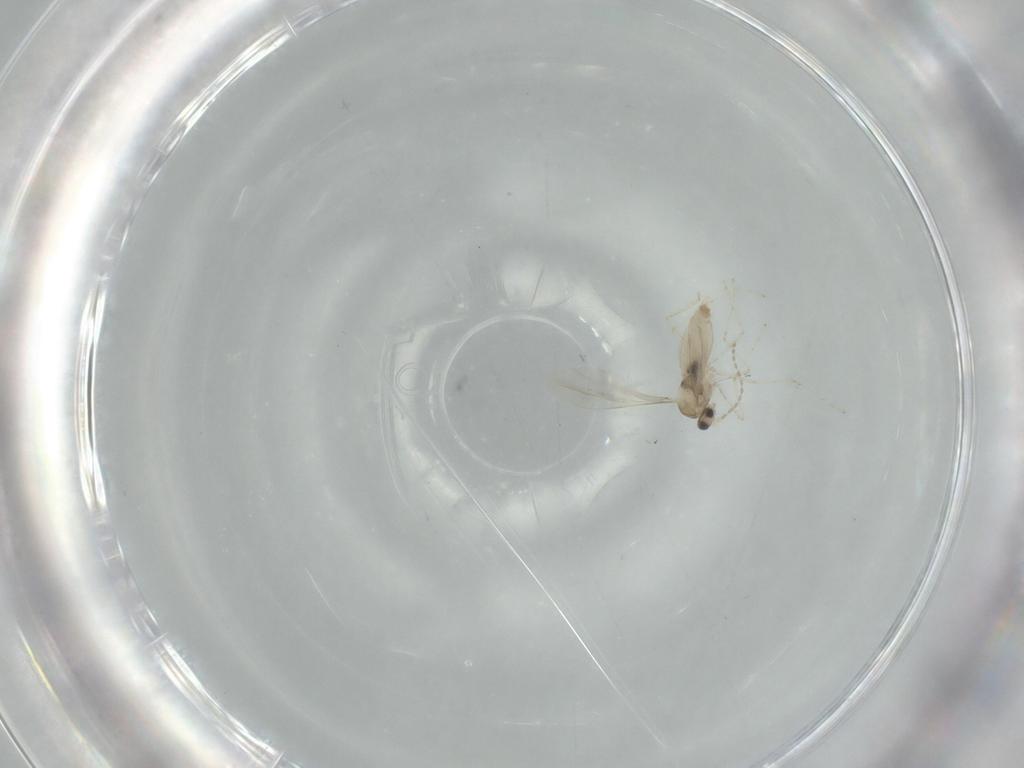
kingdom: Animalia
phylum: Arthropoda
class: Insecta
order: Diptera
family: Cecidomyiidae
